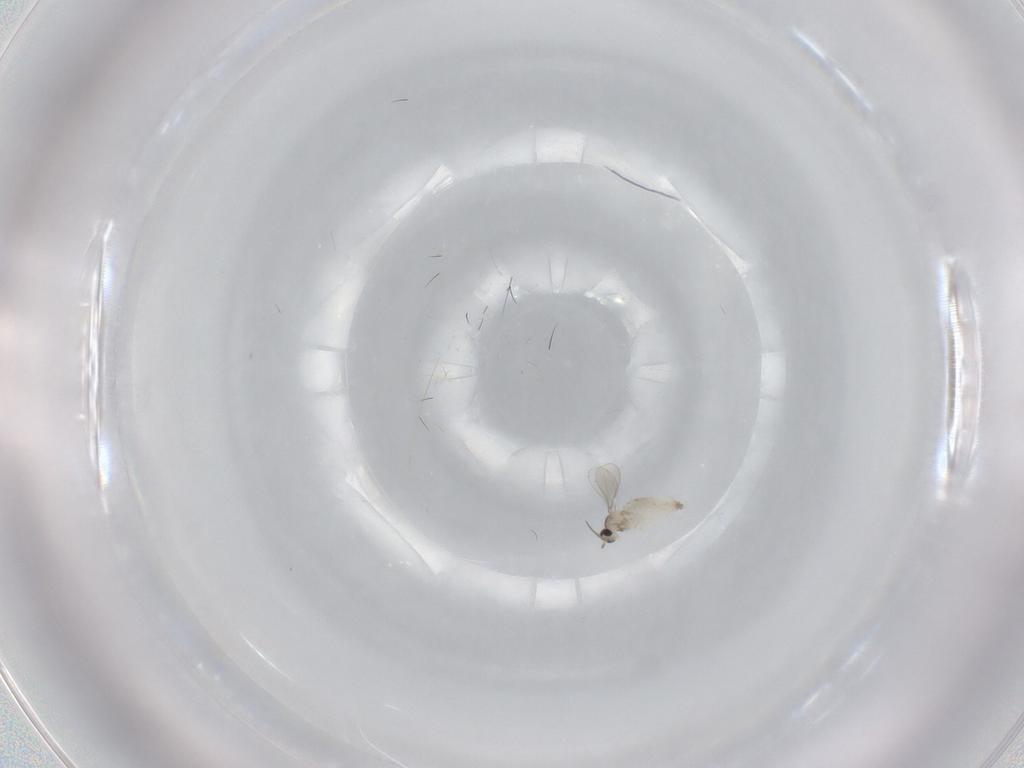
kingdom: Animalia
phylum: Arthropoda
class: Insecta
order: Diptera
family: Cecidomyiidae
